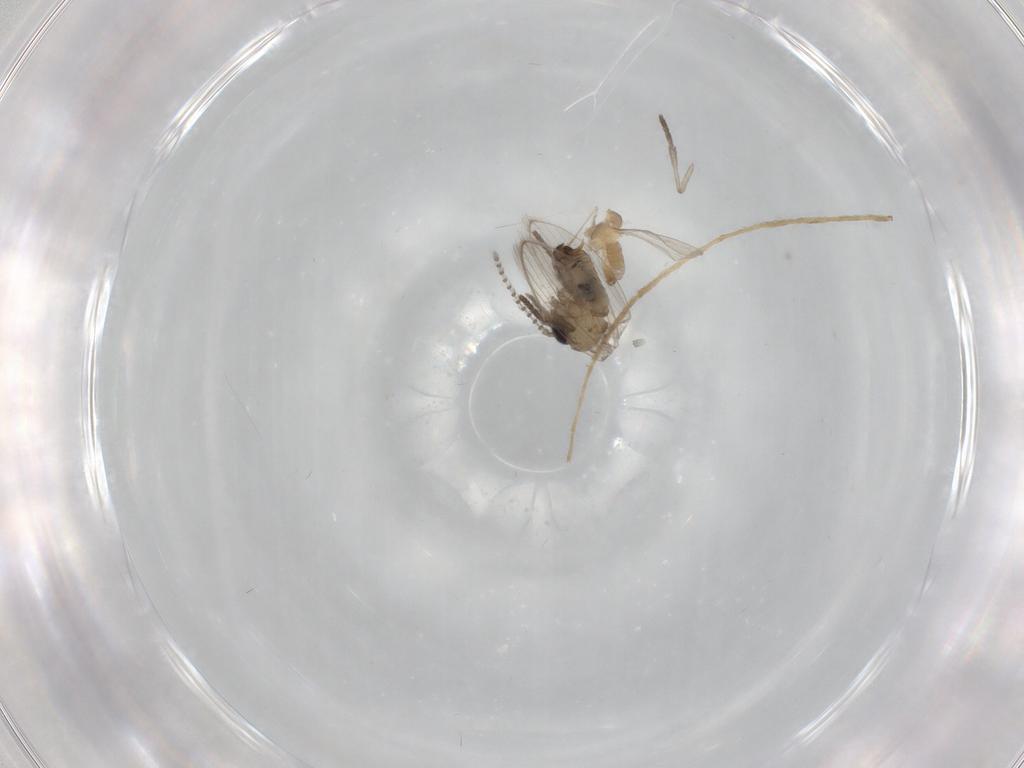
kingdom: Animalia
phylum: Arthropoda
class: Insecta
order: Diptera
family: Psychodidae
